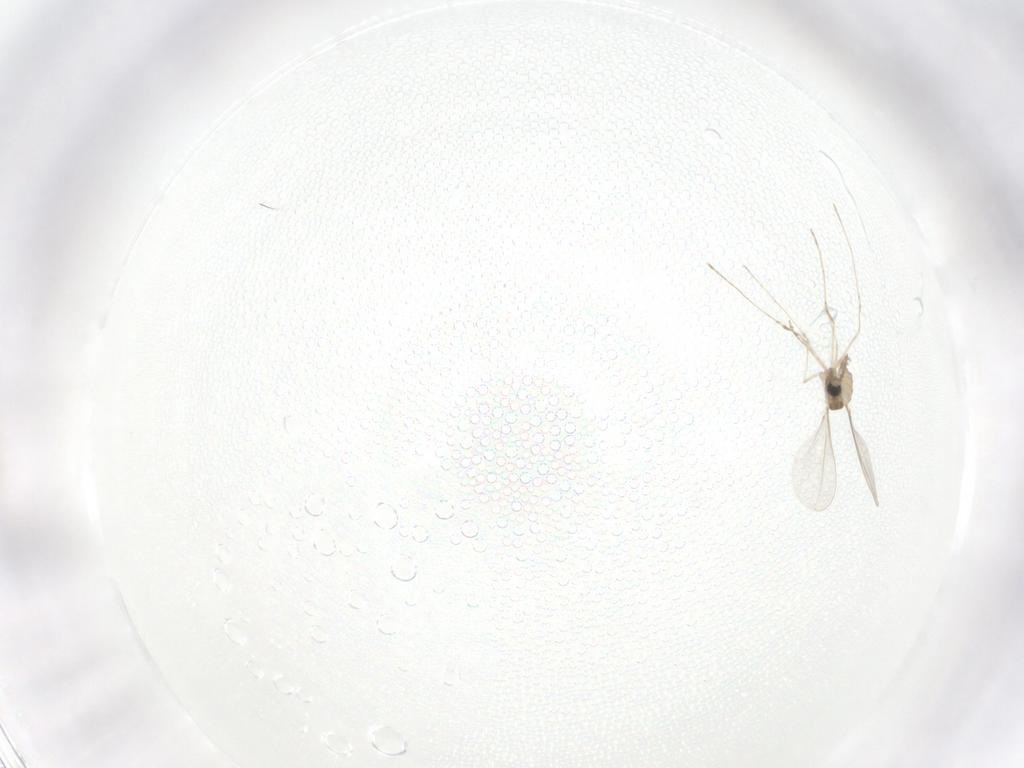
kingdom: Animalia
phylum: Arthropoda
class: Insecta
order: Diptera
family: Cecidomyiidae
